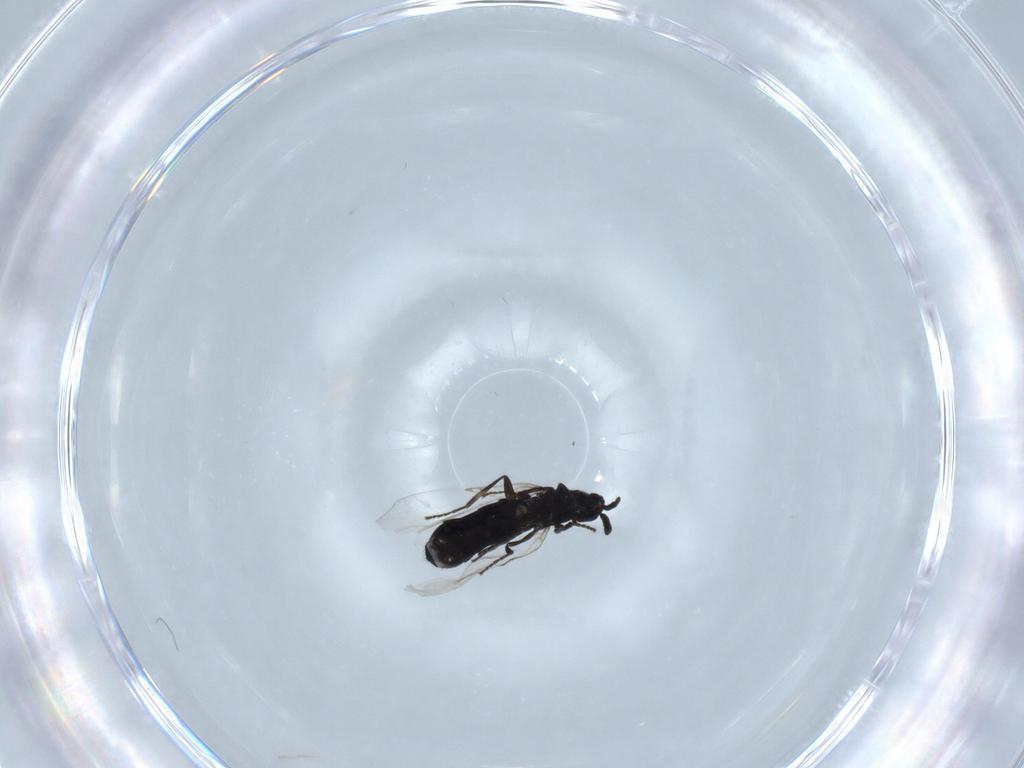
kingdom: Animalia
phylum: Arthropoda
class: Insecta
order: Diptera
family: Scatopsidae
